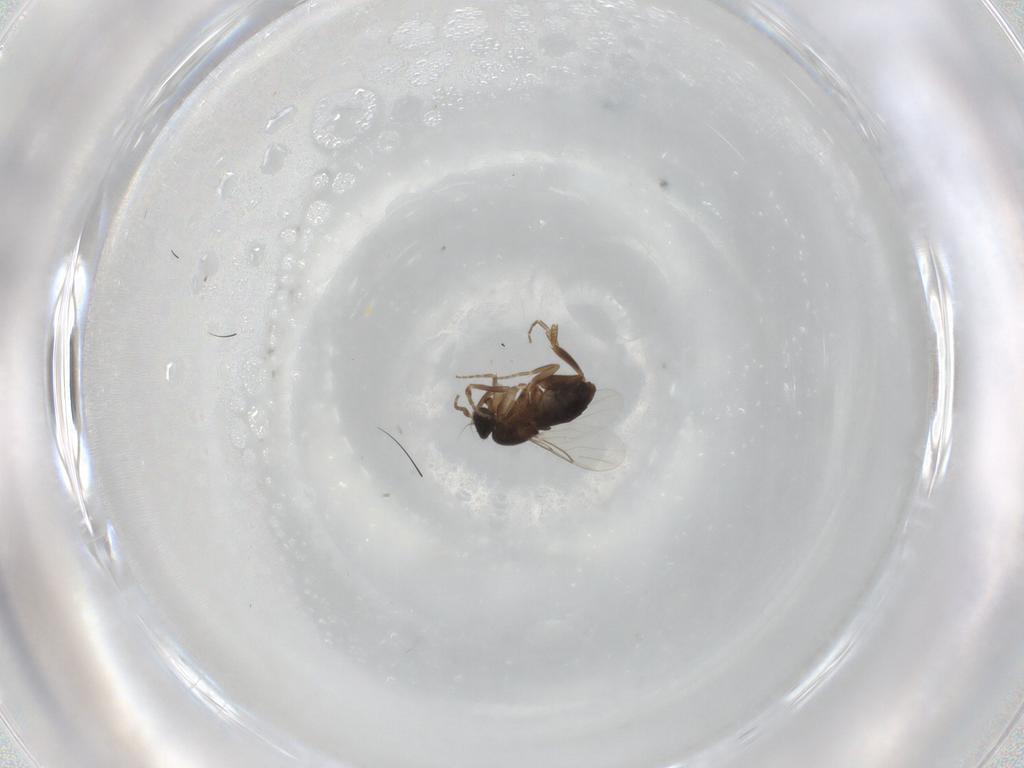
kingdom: Animalia
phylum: Arthropoda
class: Insecta
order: Diptera
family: Phoridae
